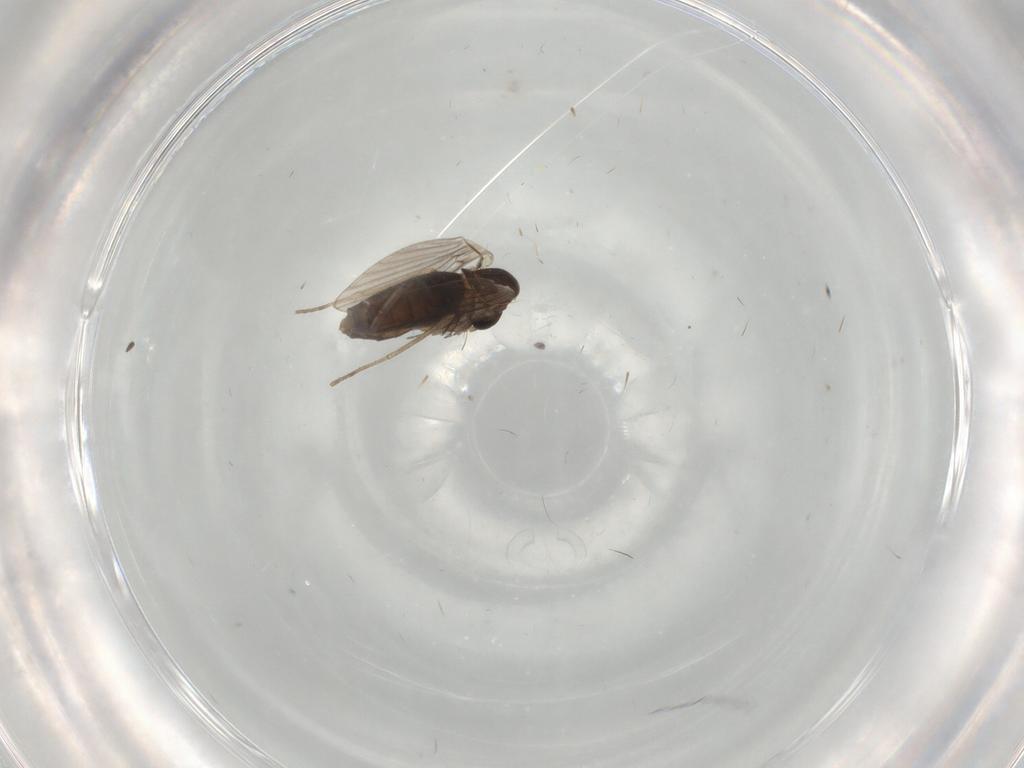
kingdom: Animalia
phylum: Arthropoda
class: Insecta
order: Diptera
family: Sciaridae
